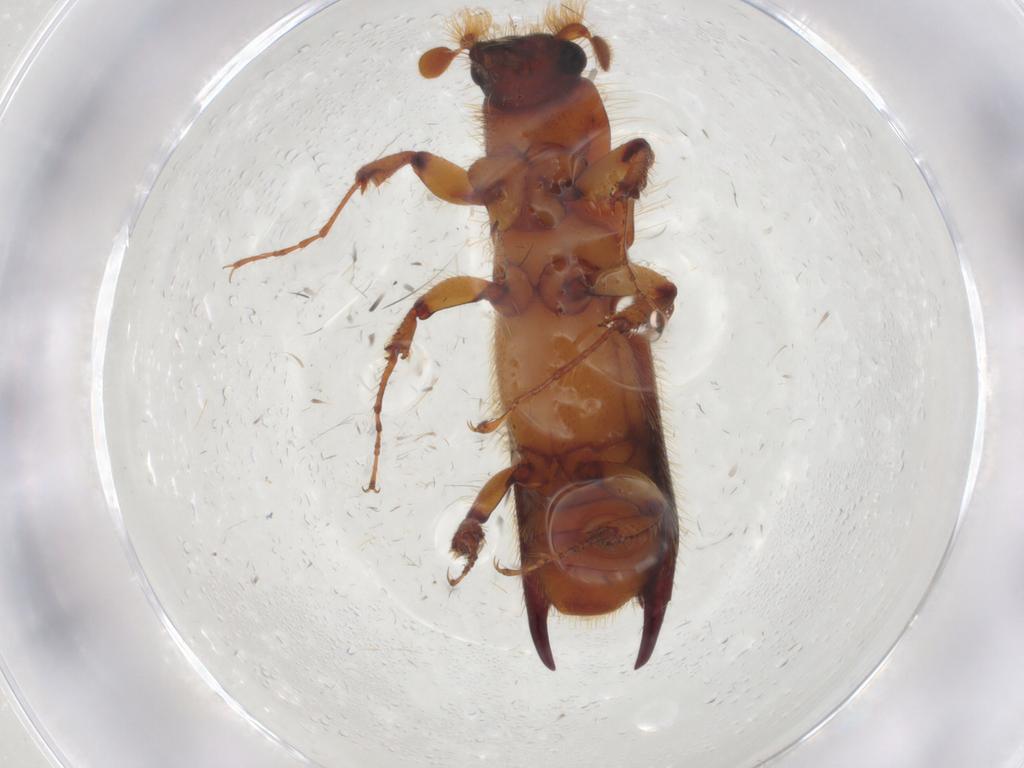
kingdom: Animalia
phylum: Arthropoda
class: Insecta
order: Coleoptera
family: Curculionidae
